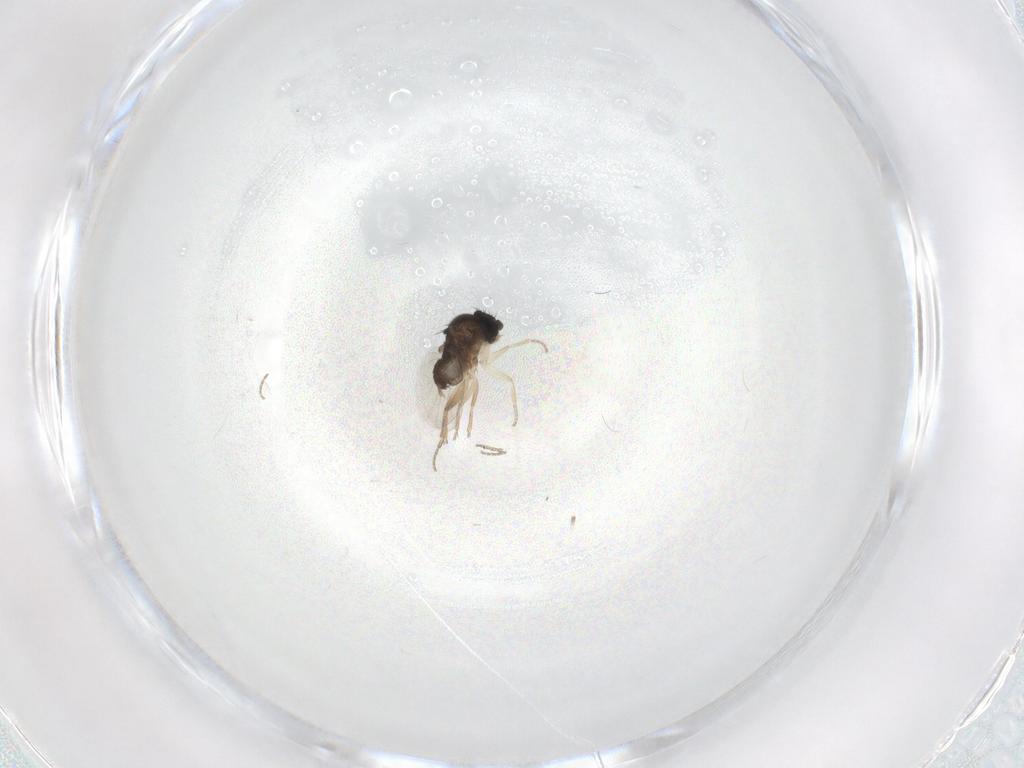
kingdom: Animalia
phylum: Arthropoda
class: Insecta
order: Diptera
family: Phoridae
